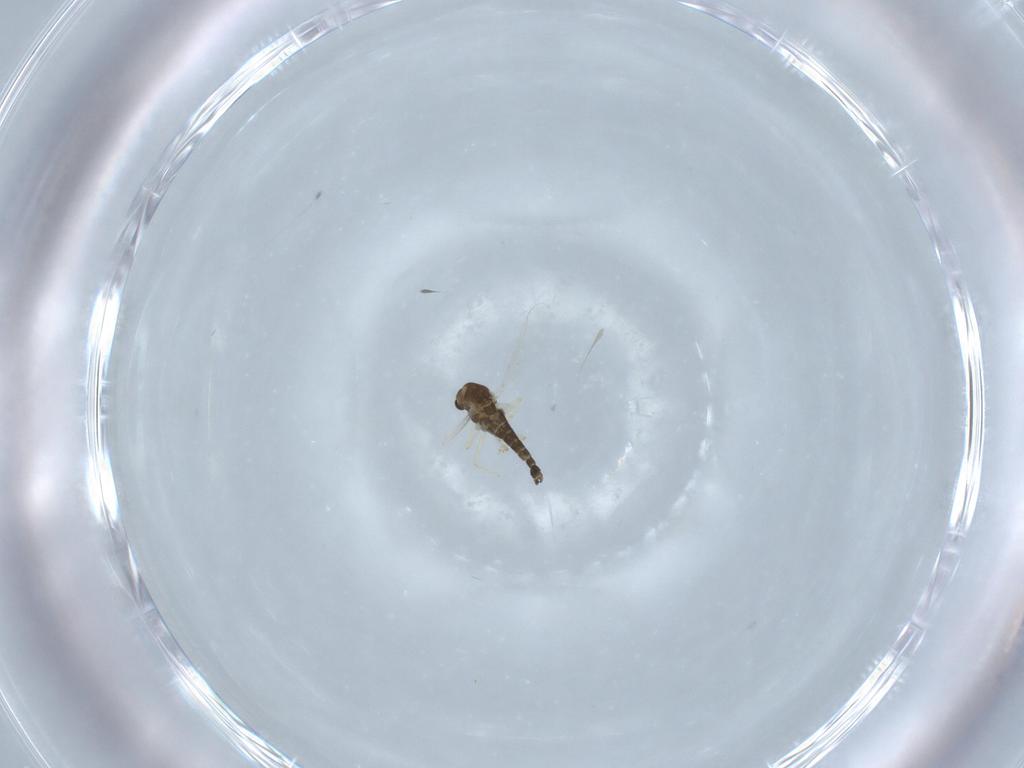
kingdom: Animalia
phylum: Arthropoda
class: Insecta
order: Diptera
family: Chironomidae
